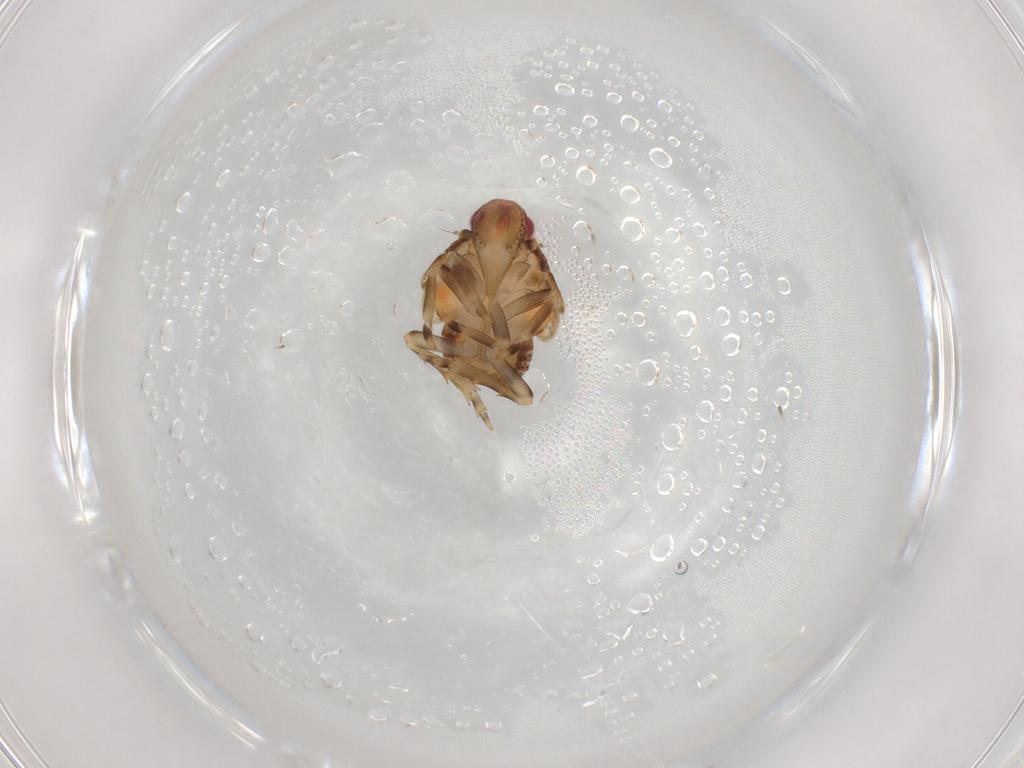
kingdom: Animalia
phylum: Arthropoda
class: Insecta
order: Hemiptera
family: Flatidae
